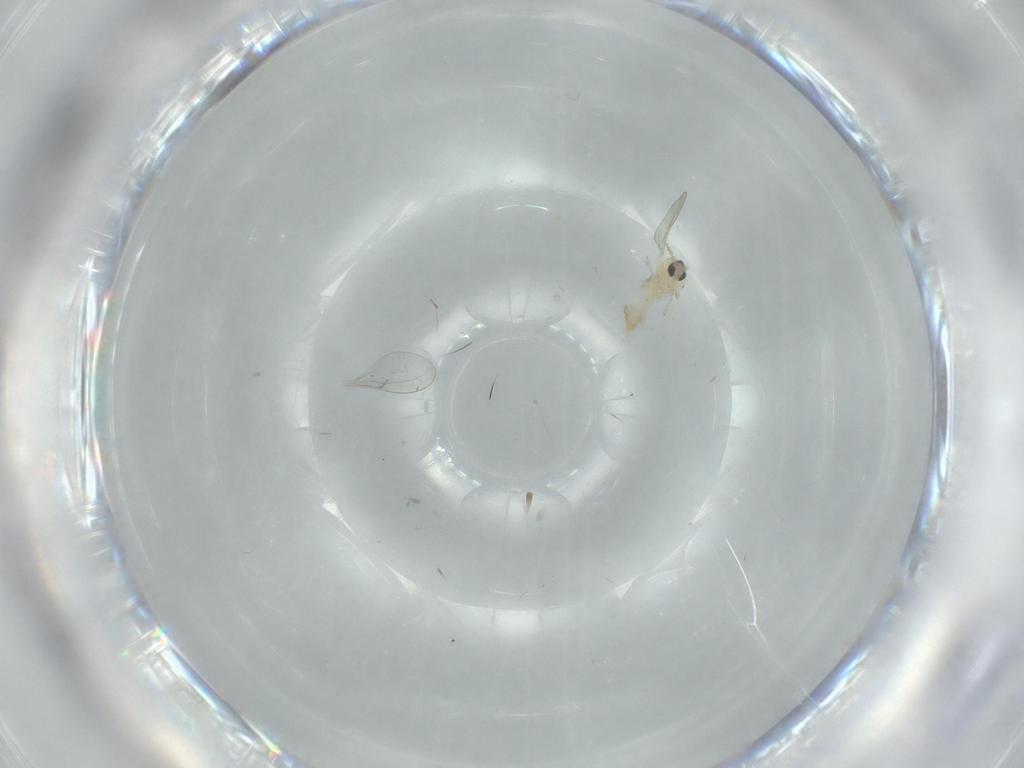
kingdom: Animalia
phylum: Arthropoda
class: Insecta
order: Diptera
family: Cecidomyiidae
